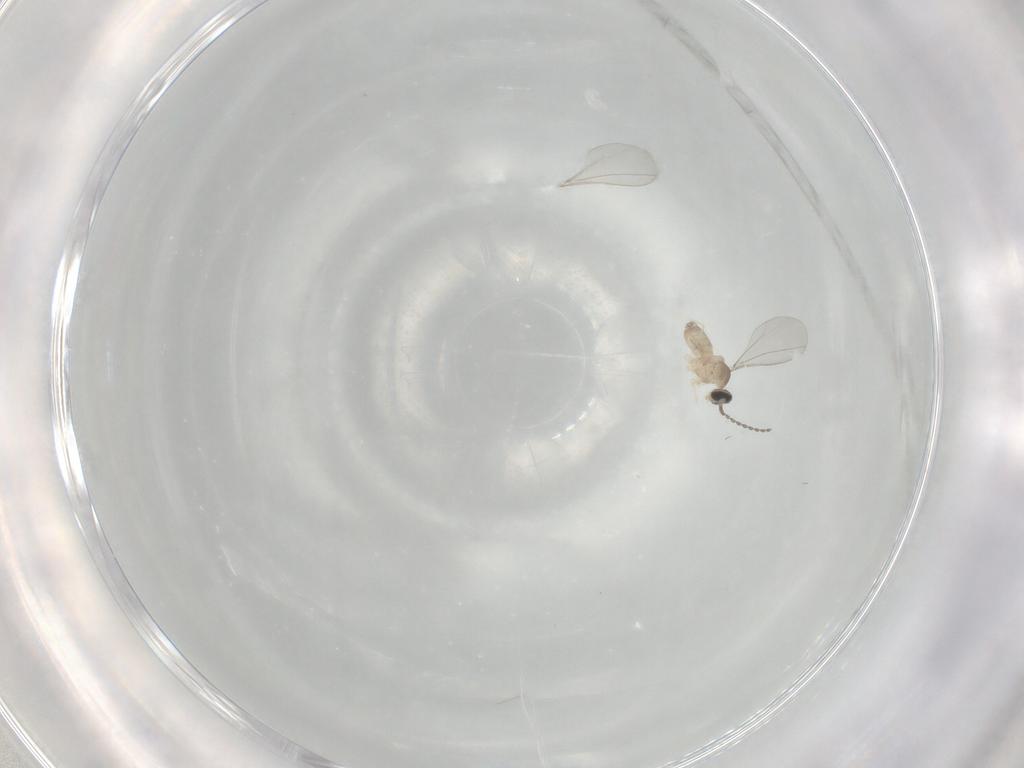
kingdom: Animalia
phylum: Arthropoda
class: Insecta
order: Diptera
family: Cecidomyiidae
